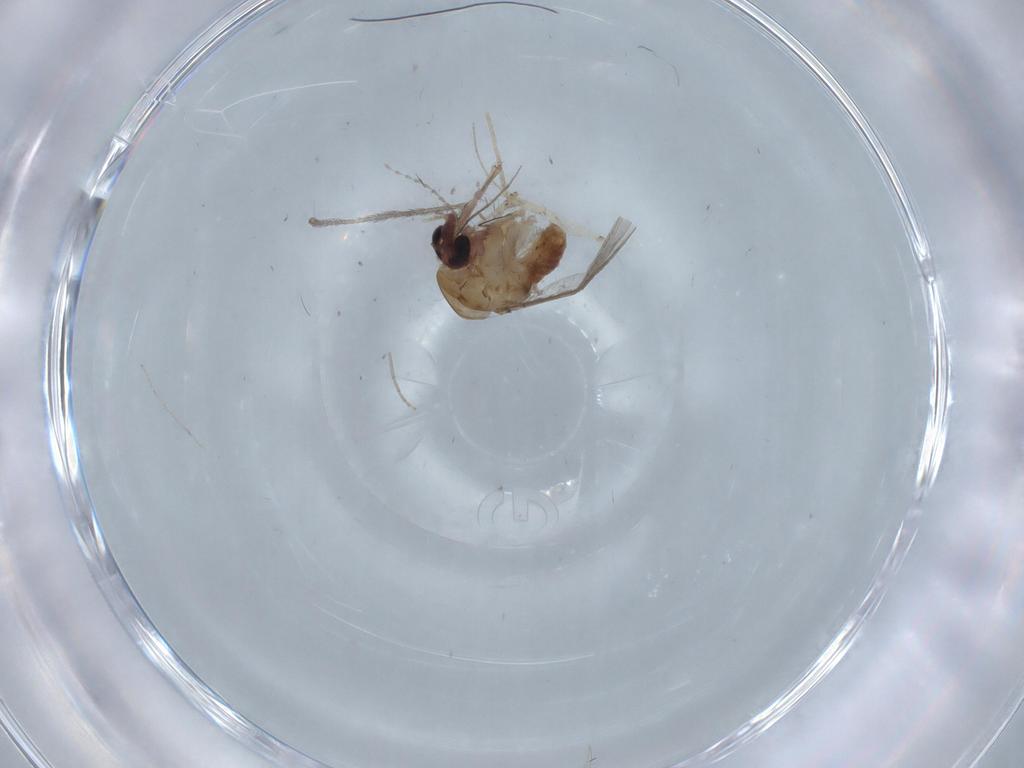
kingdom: Animalia
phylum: Arthropoda
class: Insecta
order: Diptera
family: Chironomidae
